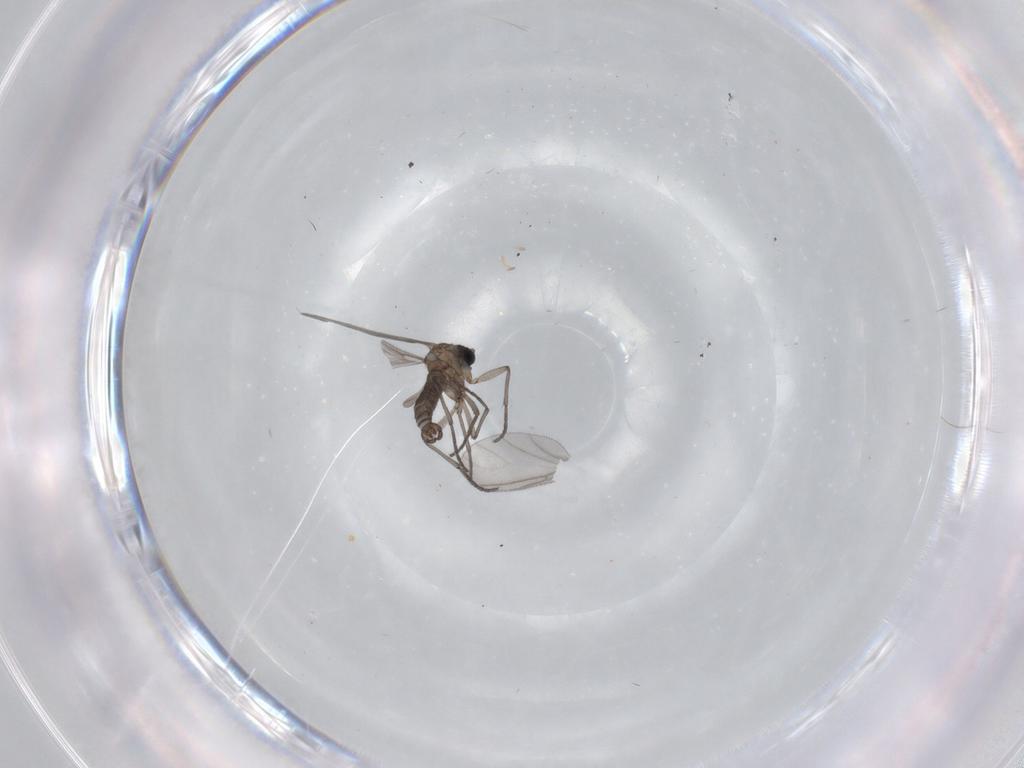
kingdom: Animalia
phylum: Arthropoda
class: Insecta
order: Diptera
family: Sciaridae
